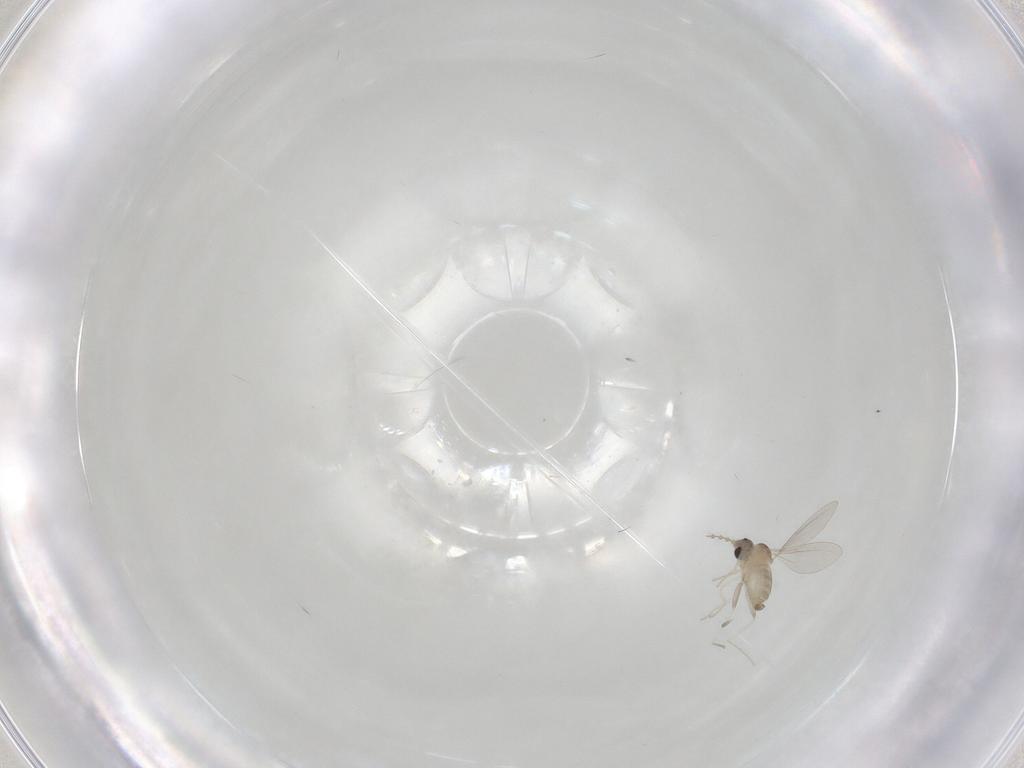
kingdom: Animalia
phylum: Arthropoda
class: Insecta
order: Diptera
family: Cecidomyiidae
